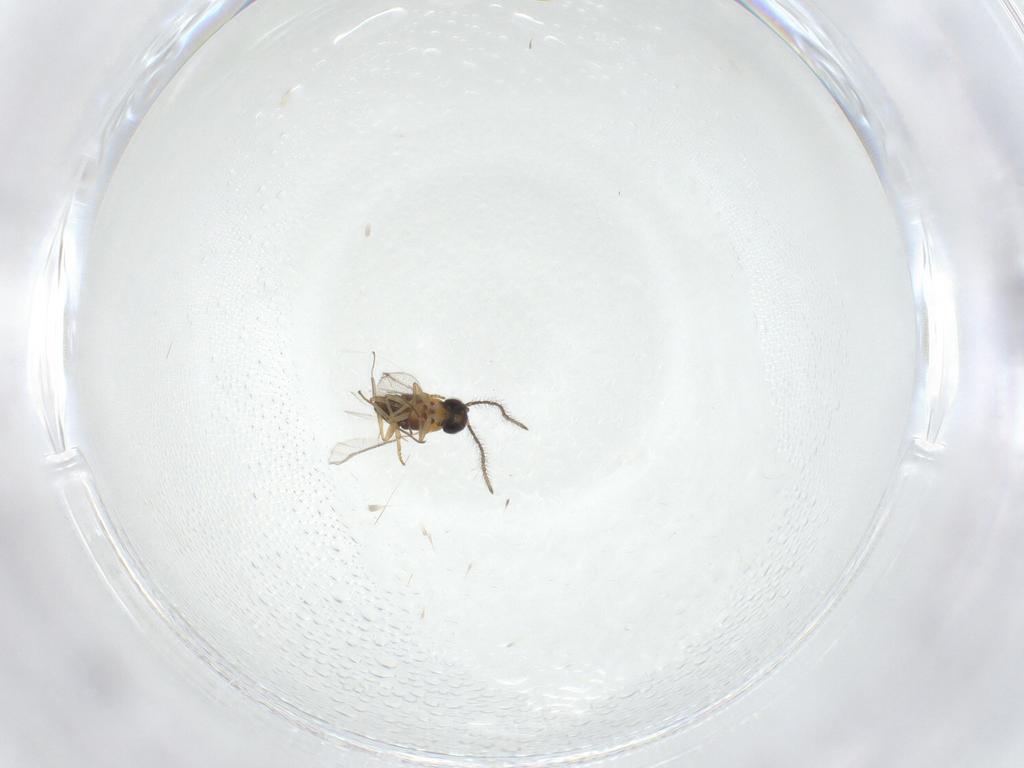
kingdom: Animalia
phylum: Arthropoda
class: Insecta
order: Hymenoptera
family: Encyrtidae
